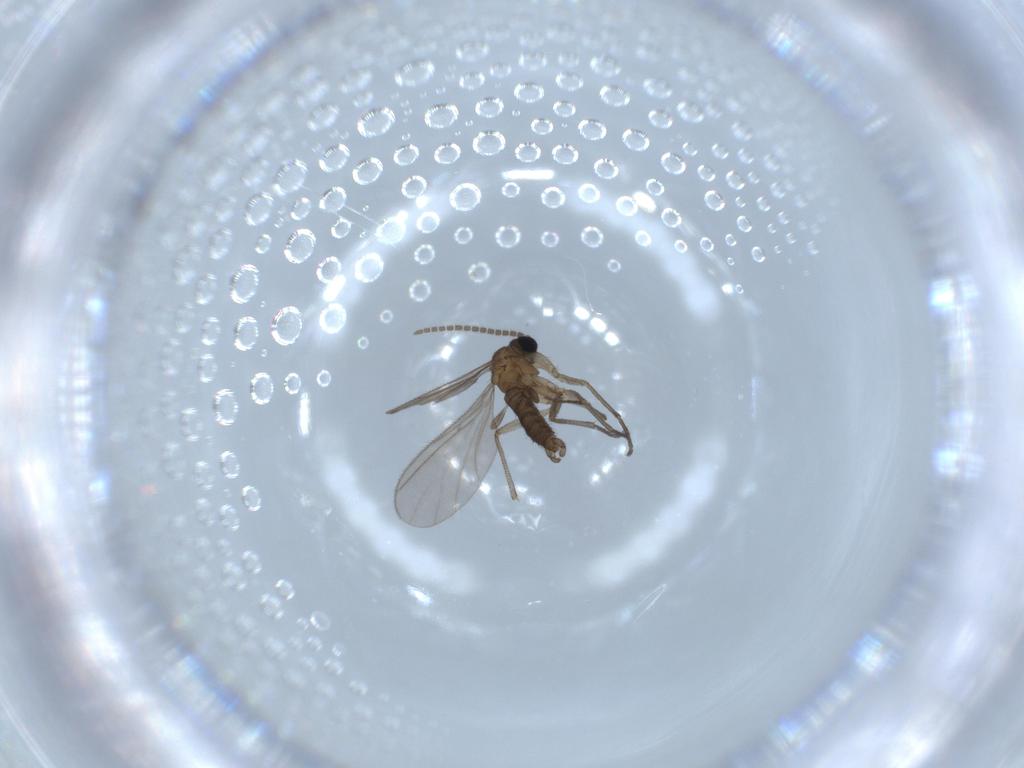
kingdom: Animalia
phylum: Arthropoda
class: Insecta
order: Diptera
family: Sciaridae
